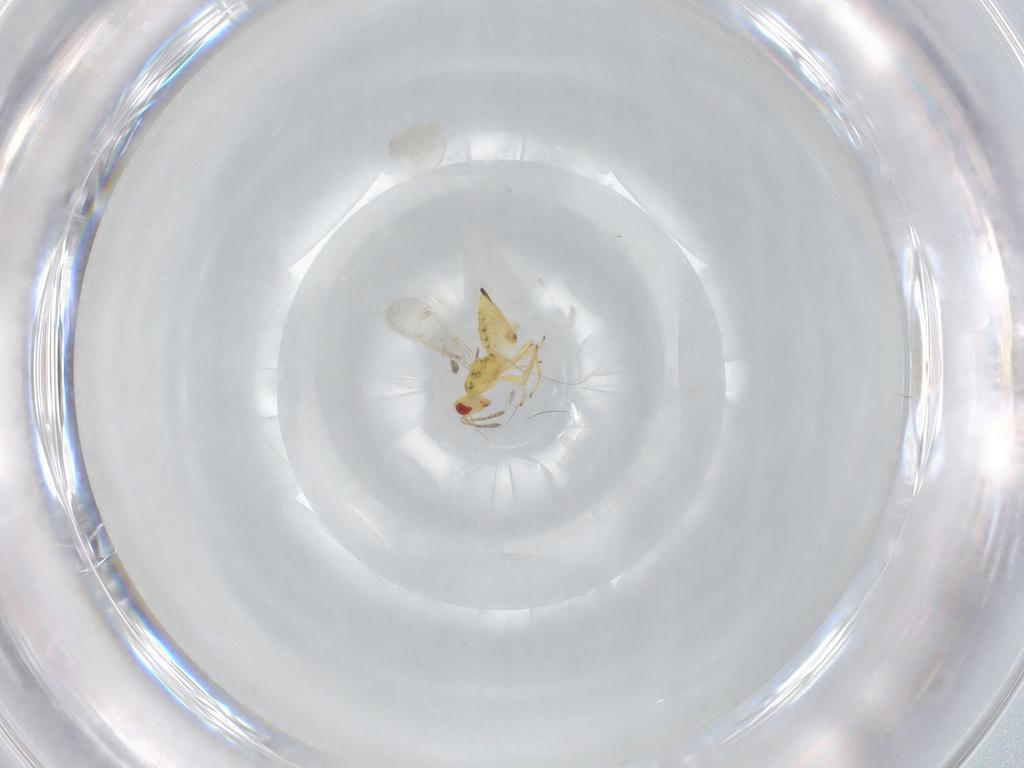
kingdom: Animalia
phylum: Arthropoda
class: Insecta
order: Hymenoptera
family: Eulophidae
